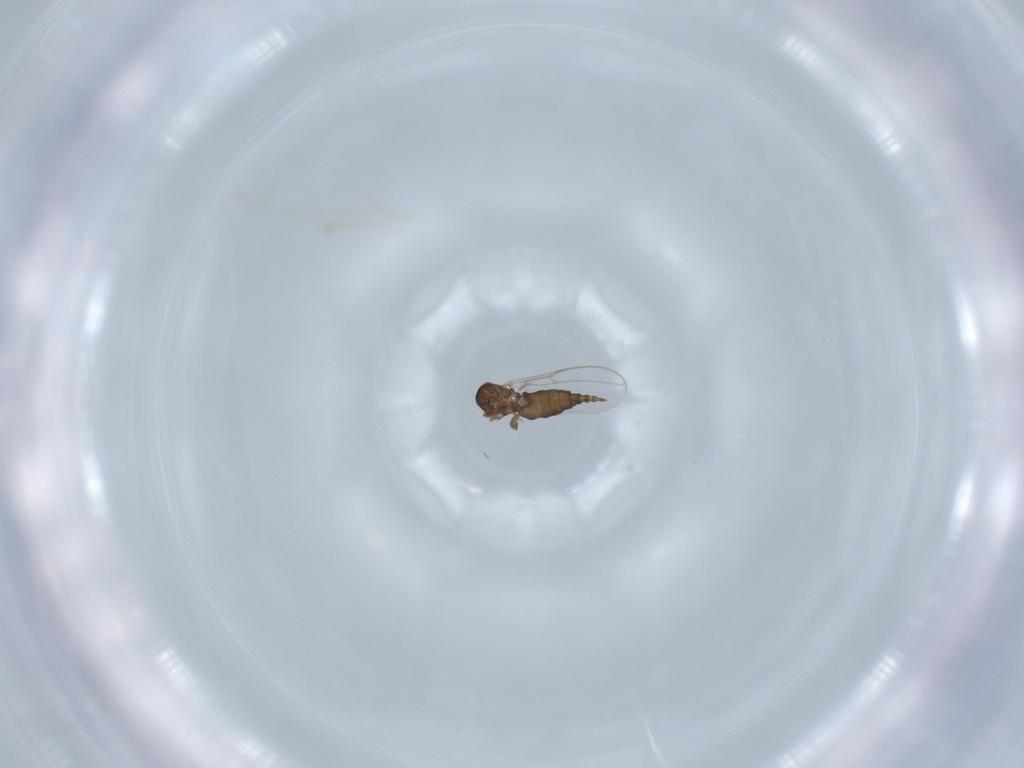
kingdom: Animalia
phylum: Arthropoda
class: Insecta
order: Diptera
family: Cecidomyiidae
